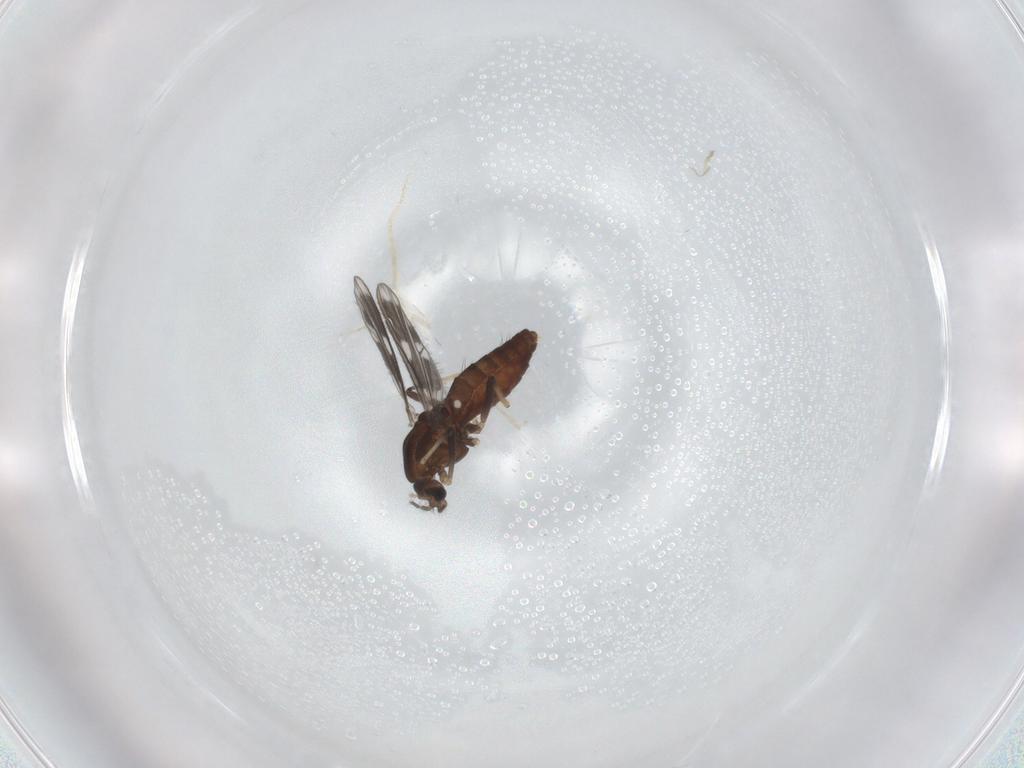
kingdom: Animalia
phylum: Arthropoda
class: Insecta
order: Diptera
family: Chironomidae
